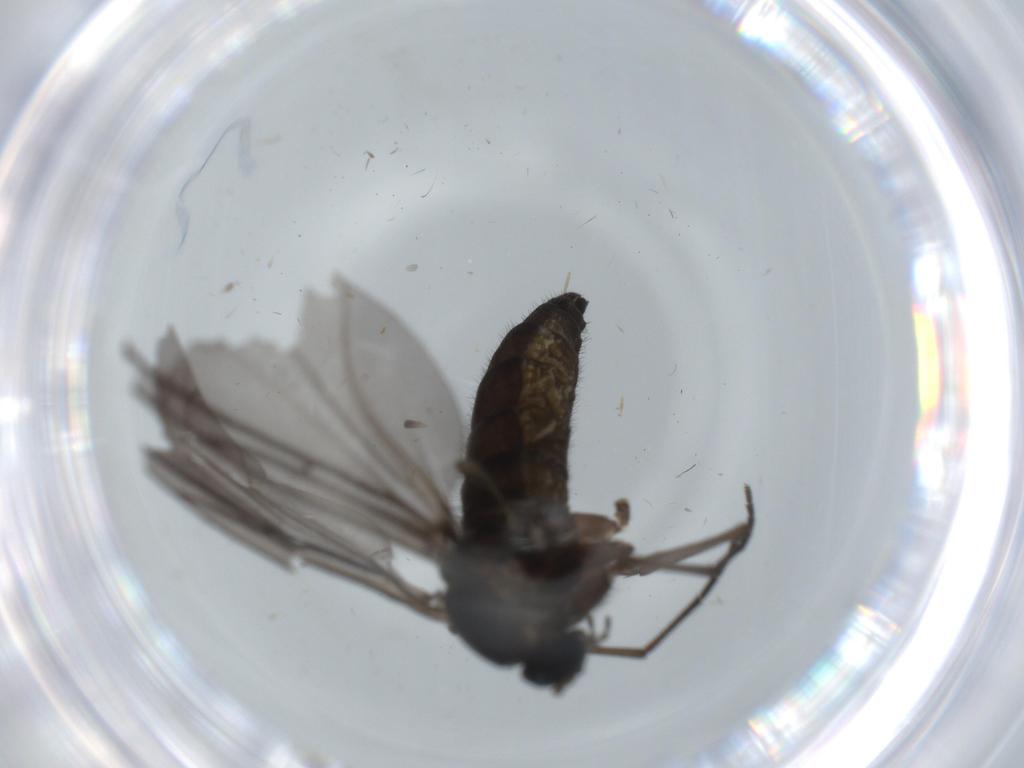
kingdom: Animalia
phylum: Arthropoda
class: Insecta
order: Diptera
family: Sciaridae
